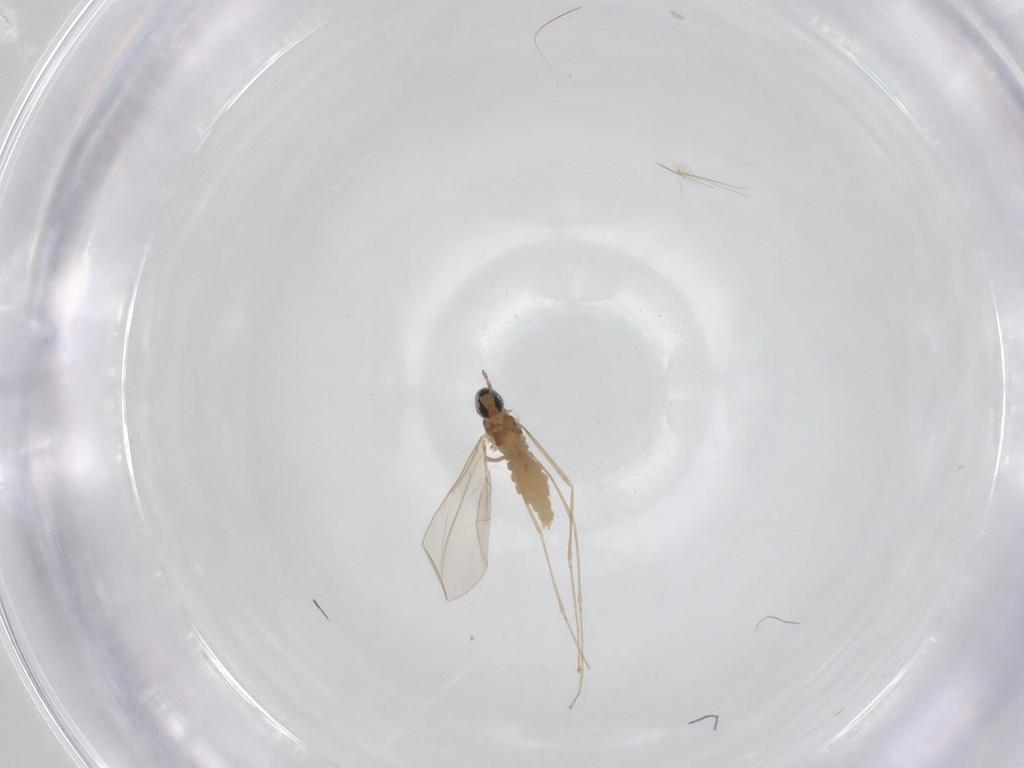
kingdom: Animalia
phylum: Arthropoda
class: Insecta
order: Diptera
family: Cecidomyiidae
